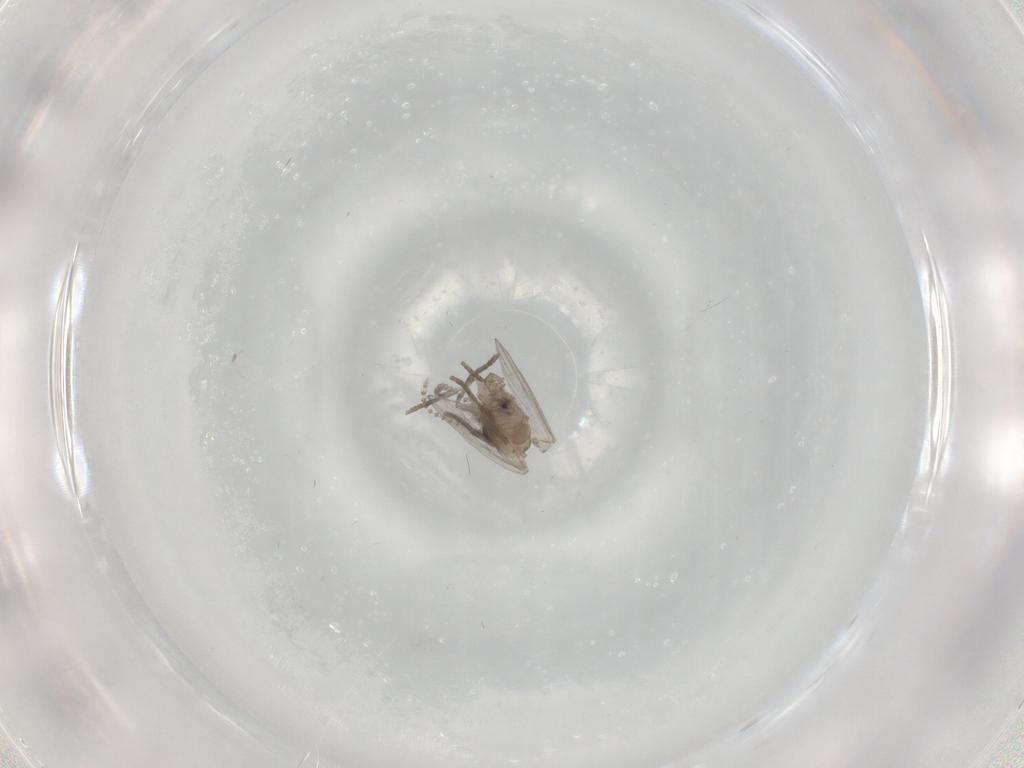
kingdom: Animalia
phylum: Arthropoda
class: Insecta
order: Diptera
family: Psychodidae
